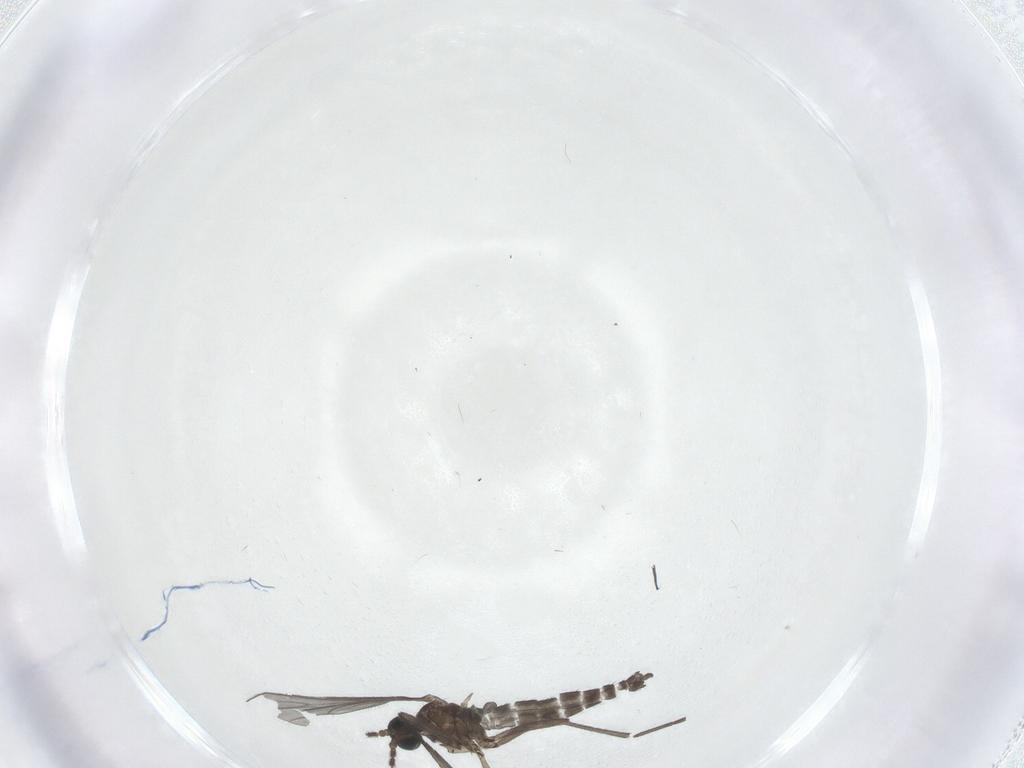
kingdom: Animalia
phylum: Arthropoda
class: Insecta
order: Diptera
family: Sciaridae
